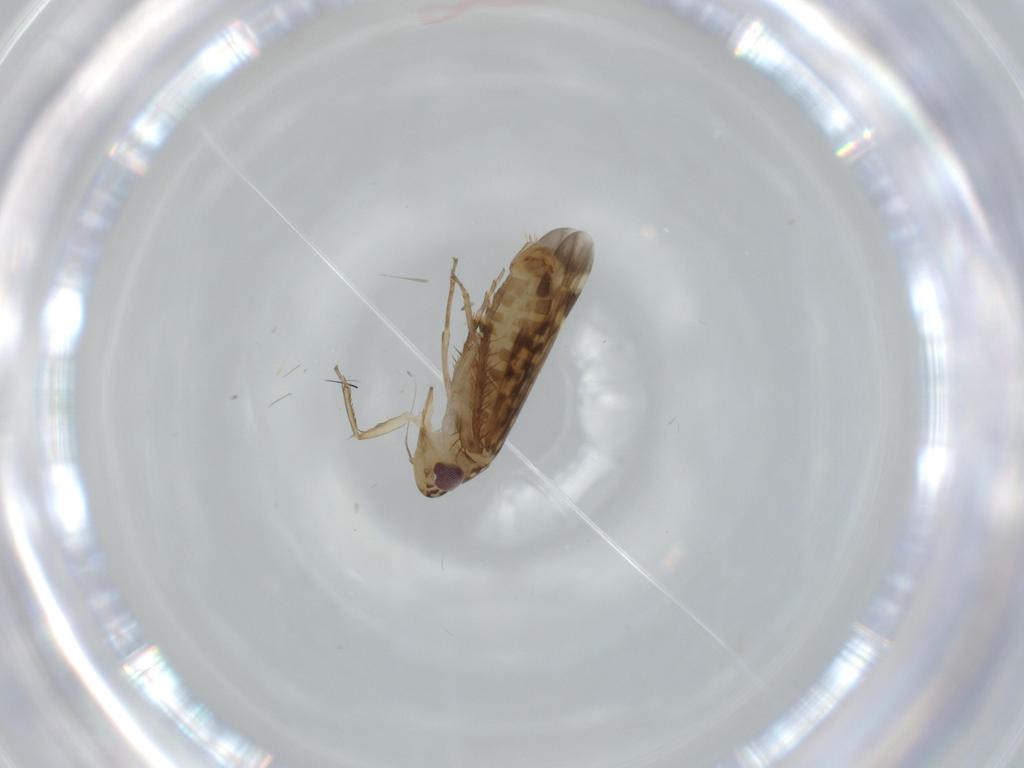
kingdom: Animalia
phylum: Arthropoda
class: Insecta
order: Hemiptera
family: Cicadellidae
